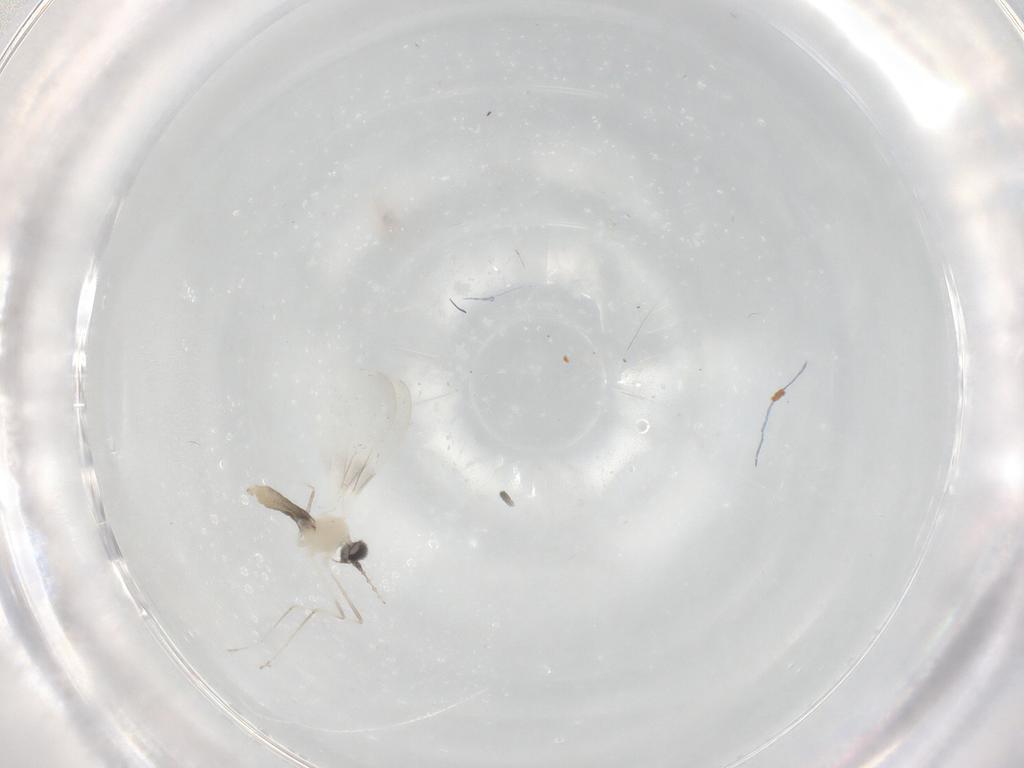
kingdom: Animalia
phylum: Arthropoda
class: Insecta
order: Diptera
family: Cecidomyiidae
